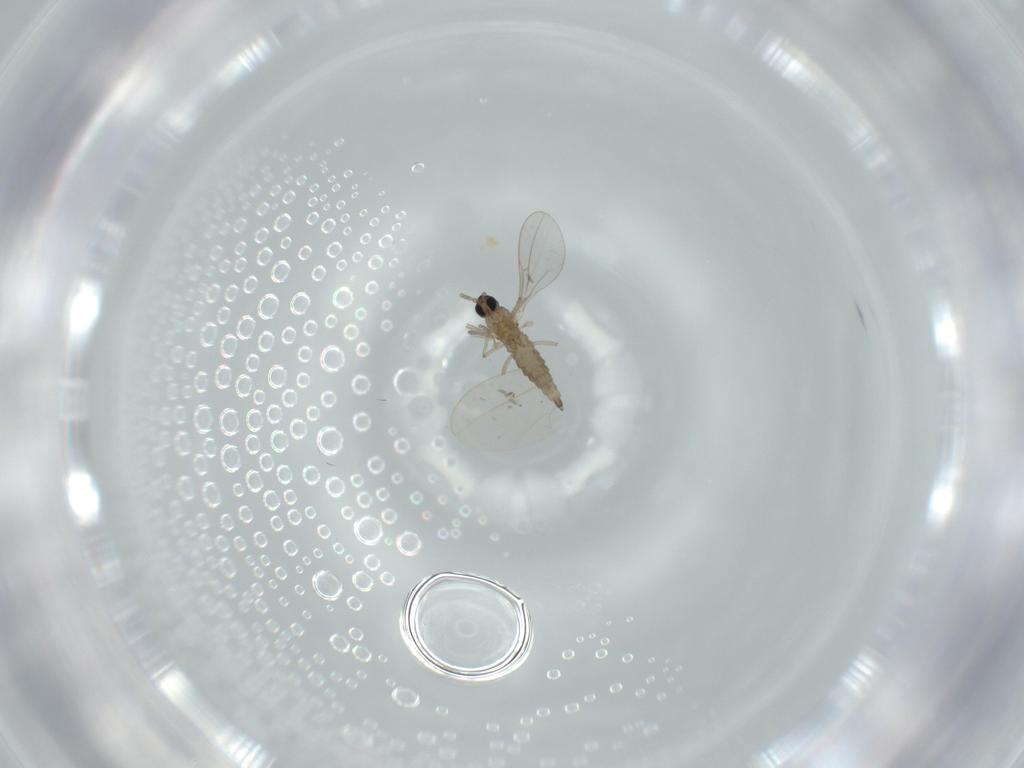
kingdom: Animalia
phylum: Arthropoda
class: Insecta
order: Diptera
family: Cecidomyiidae
